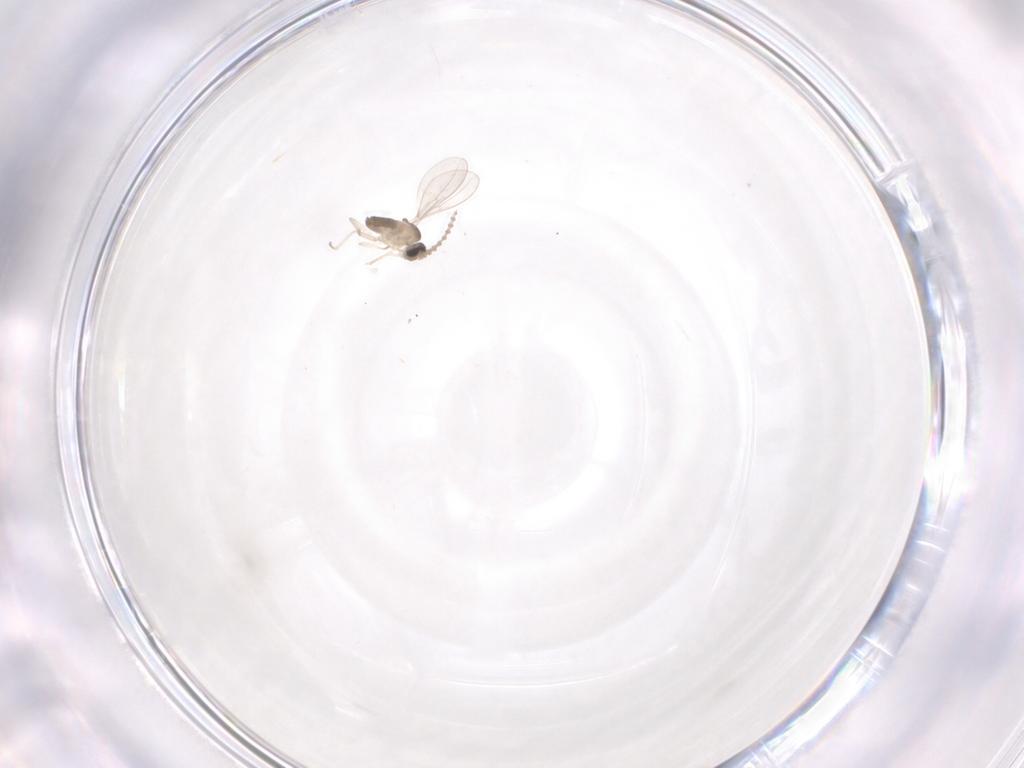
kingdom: Animalia
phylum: Arthropoda
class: Insecta
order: Diptera
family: Cecidomyiidae
